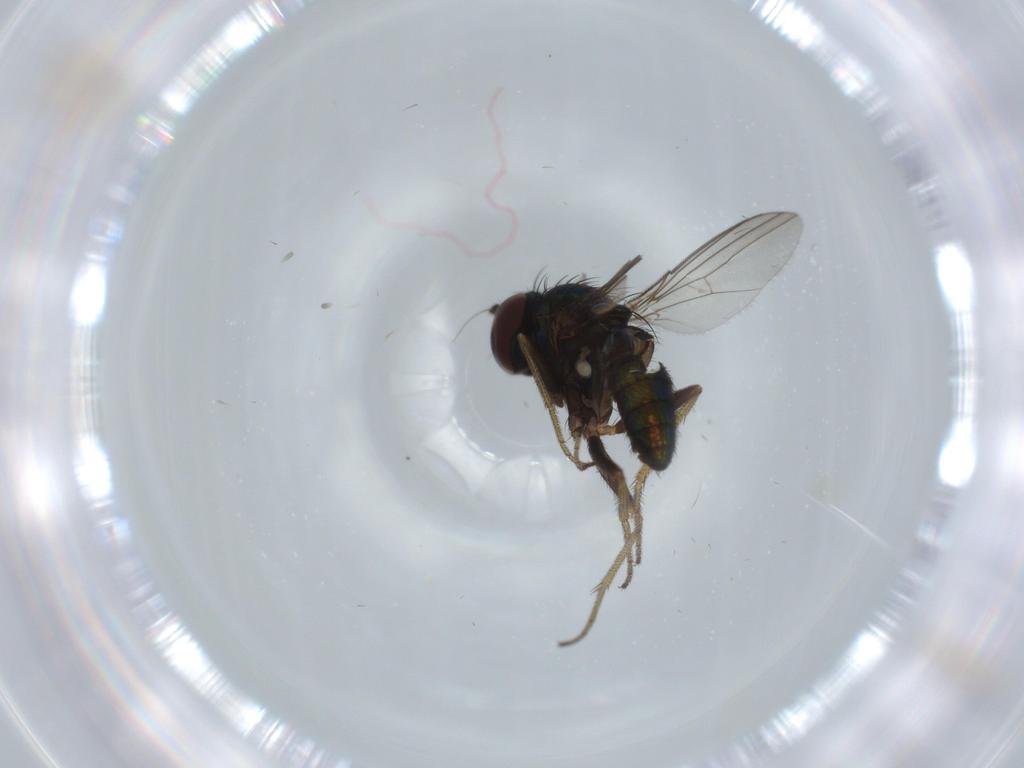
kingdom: Animalia
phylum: Arthropoda
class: Insecta
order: Diptera
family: Dolichopodidae
